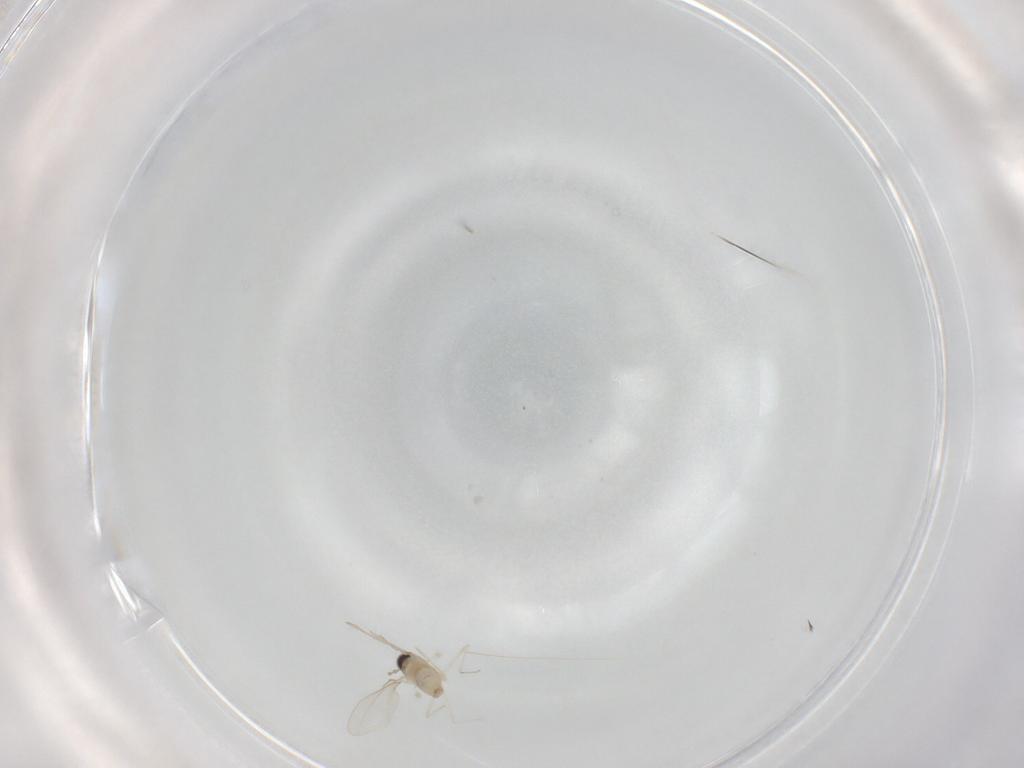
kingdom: Animalia
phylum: Arthropoda
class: Insecta
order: Diptera
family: Cecidomyiidae
